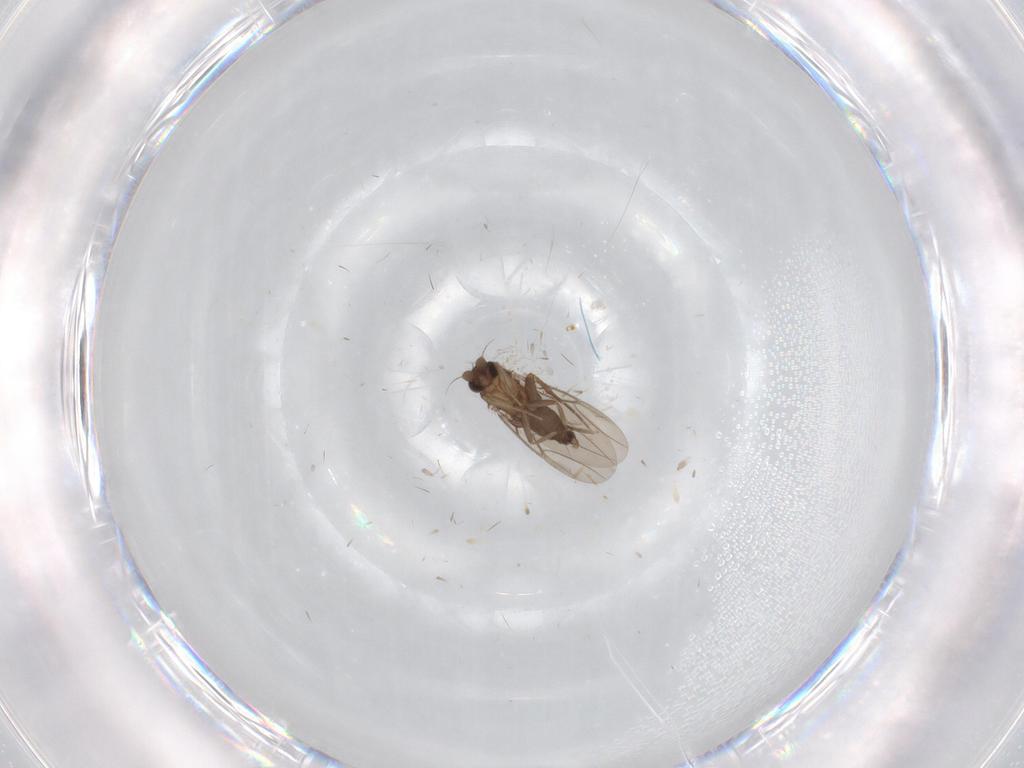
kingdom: Animalia
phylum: Arthropoda
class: Insecta
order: Diptera
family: Cecidomyiidae
